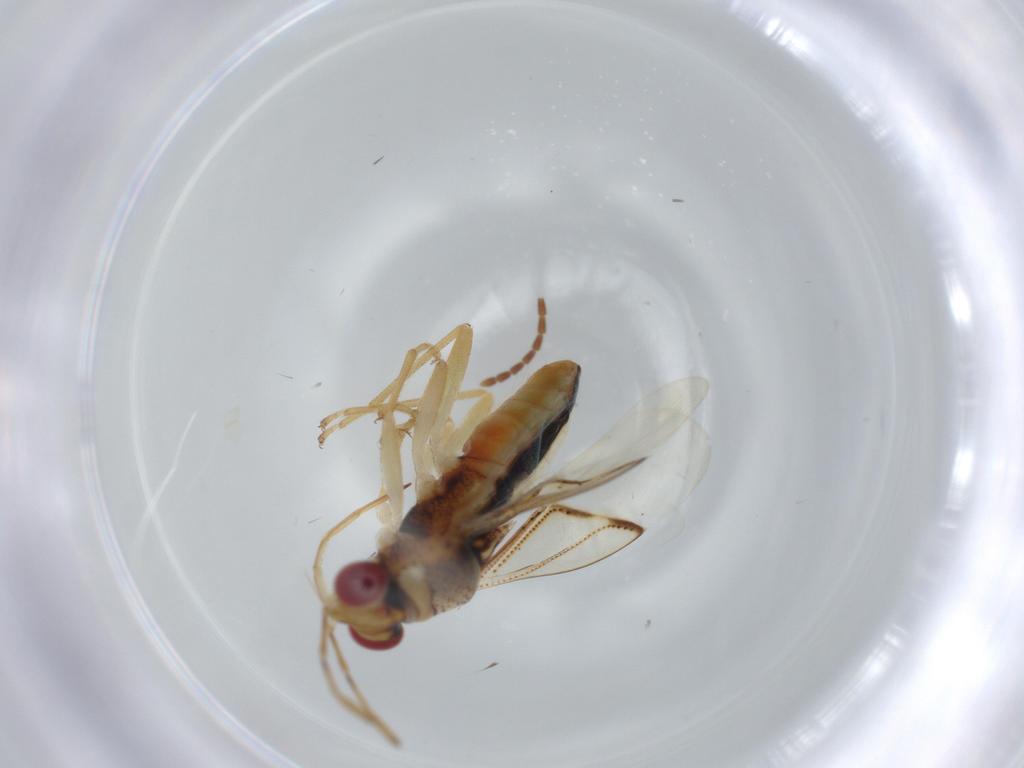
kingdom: Animalia
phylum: Arthropoda
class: Insecta
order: Hemiptera
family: Geocoridae
